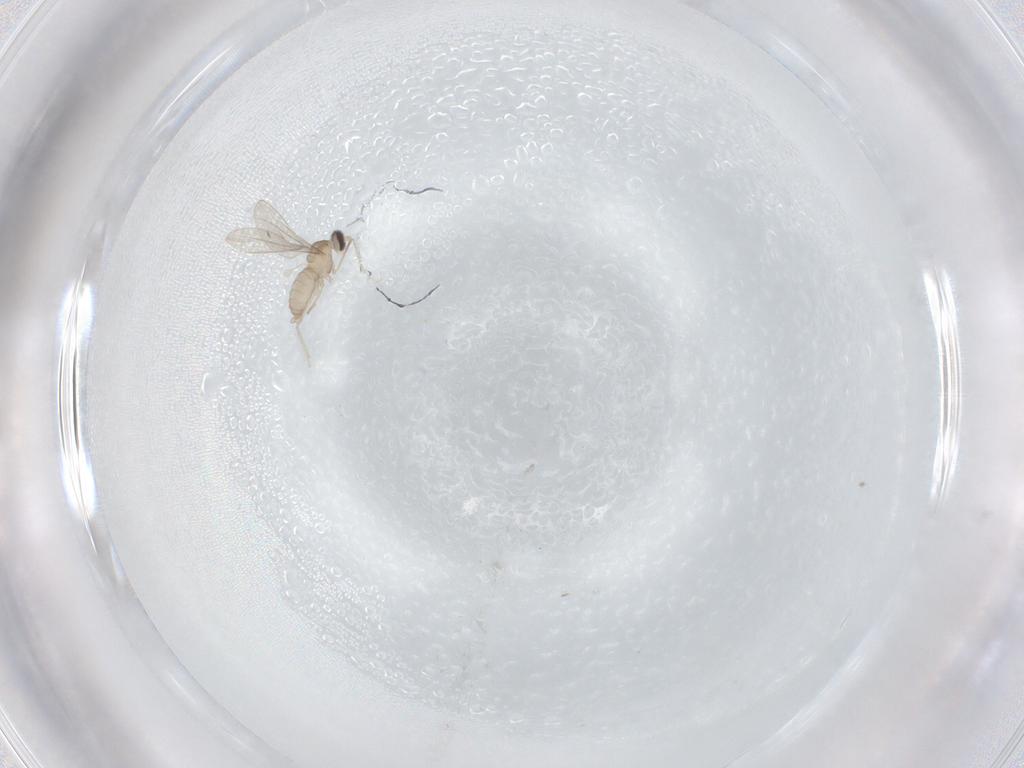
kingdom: Animalia
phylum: Arthropoda
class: Insecta
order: Diptera
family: Cecidomyiidae
